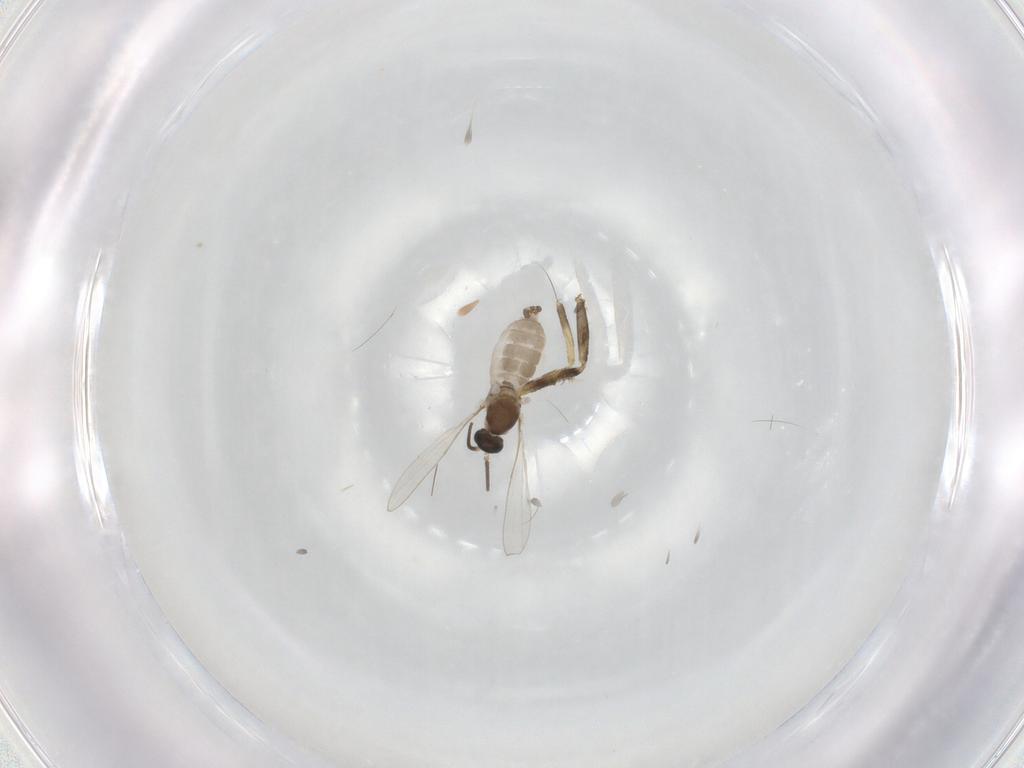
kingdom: Animalia
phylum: Arthropoda
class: Insecta
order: Diptera
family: Cecidomyiidae
